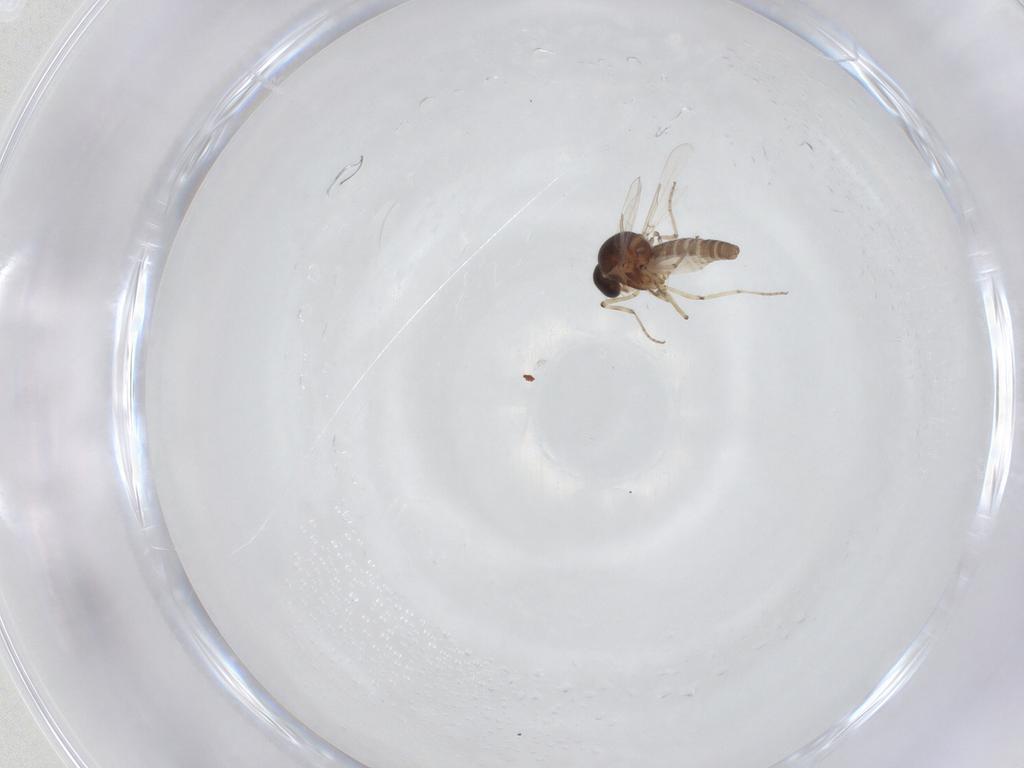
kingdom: Animalia
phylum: Arthropoda
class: Insecta
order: Diptera
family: Ceratopogonidae
